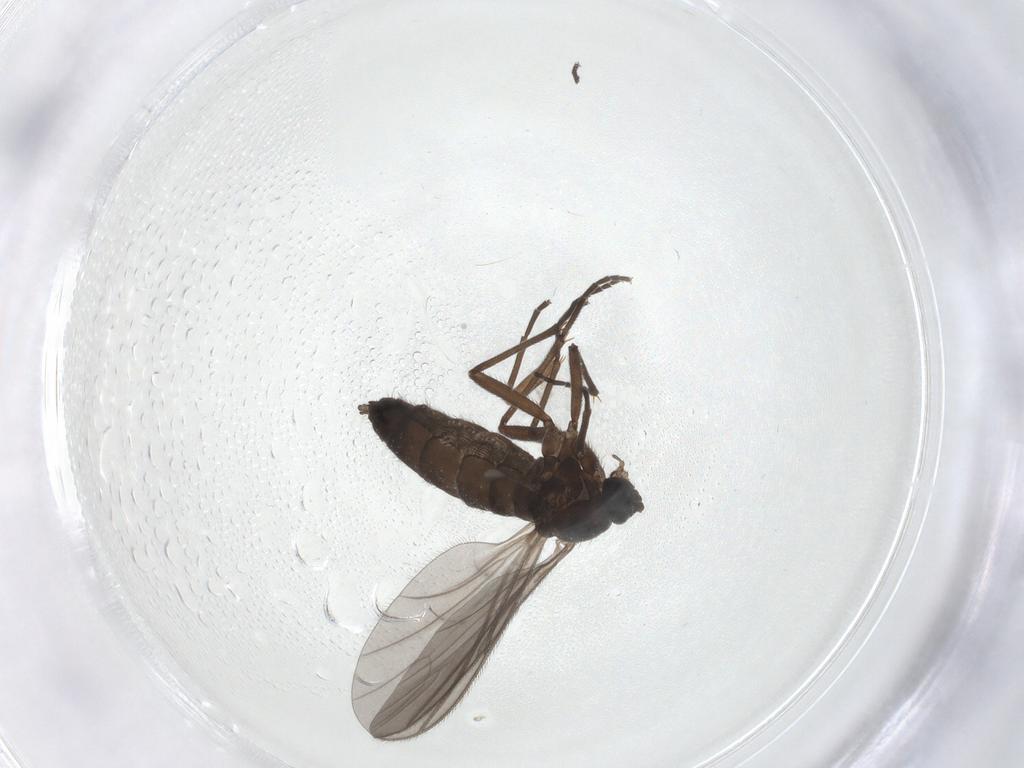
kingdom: Animalia
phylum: Arthropoda
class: Insecta
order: Diptera
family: Sciaridae
